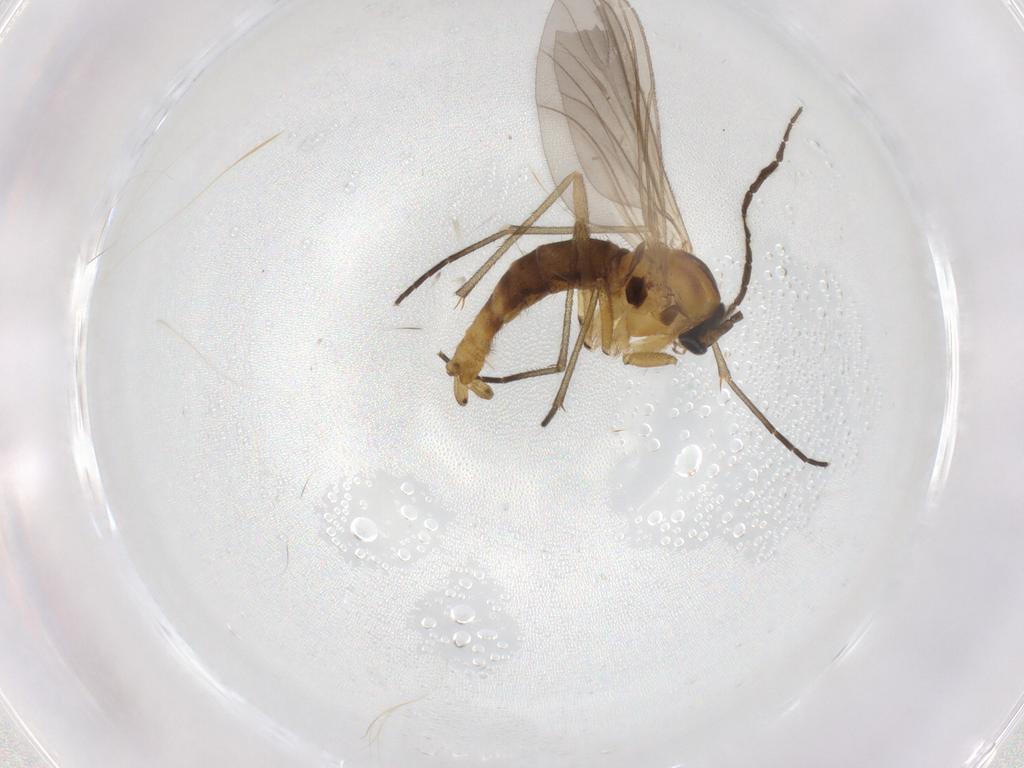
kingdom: Animalia
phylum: Arthropoda
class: Insecta
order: Diptera
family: Sciaridae
